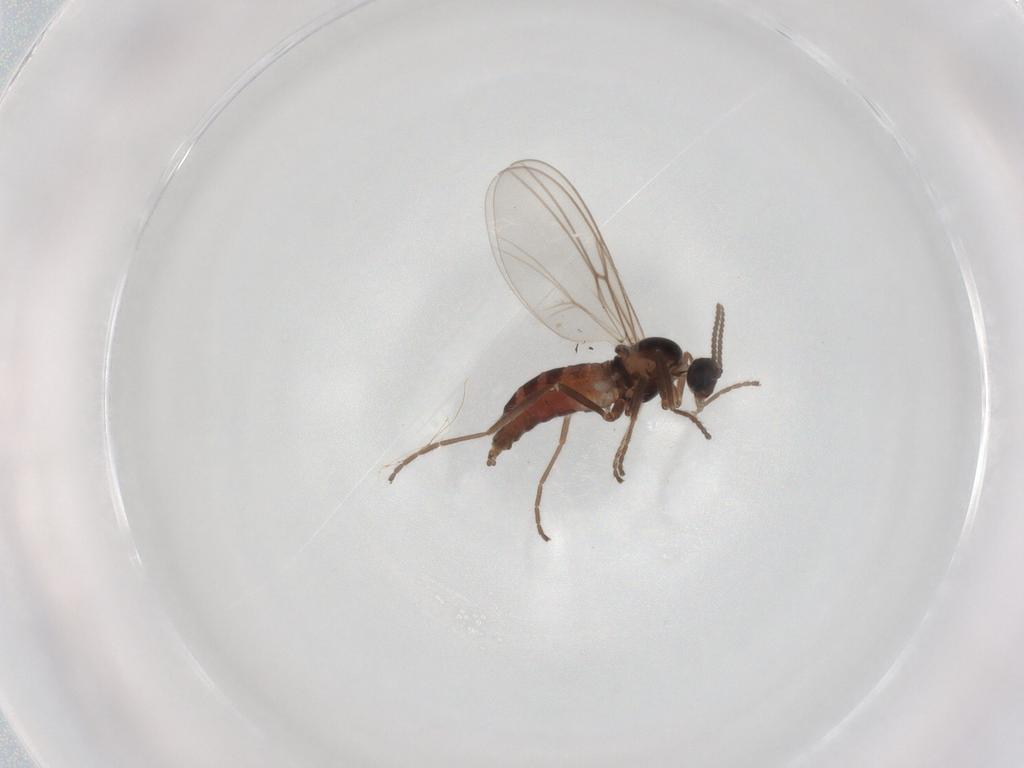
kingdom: Animalia
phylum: Arthropoda
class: Insecta
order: Diptera
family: Cecidomyiidae
